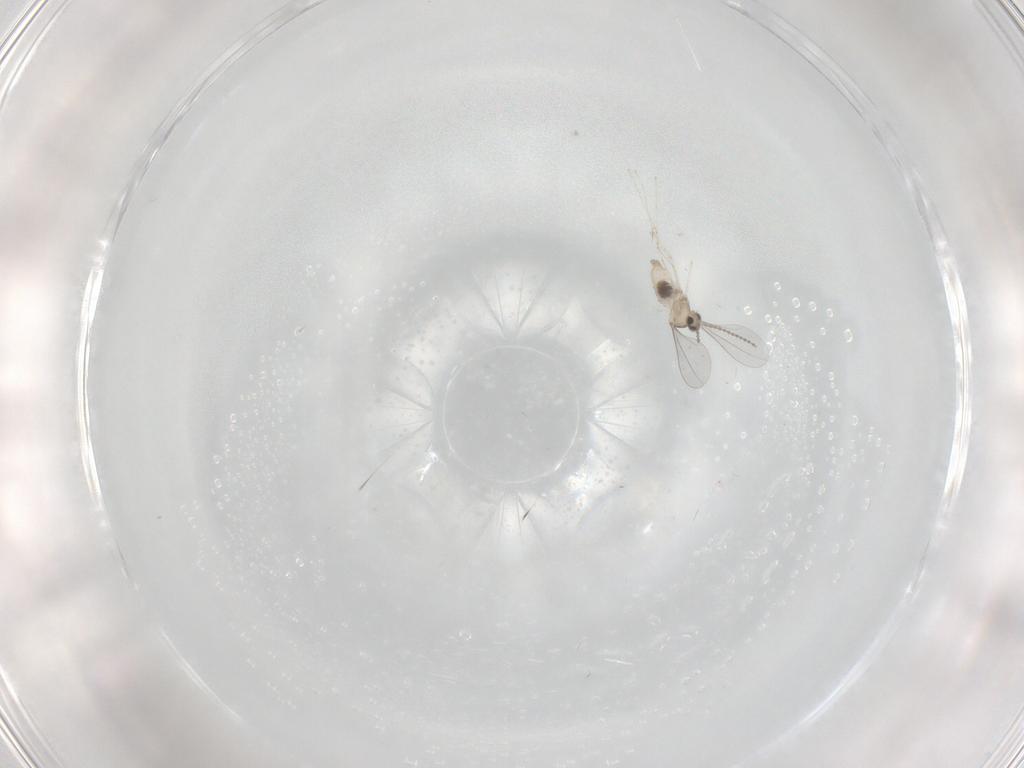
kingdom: Animalia
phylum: Arthropoda
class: Insecta
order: Diptera
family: Cecidomyiidae
